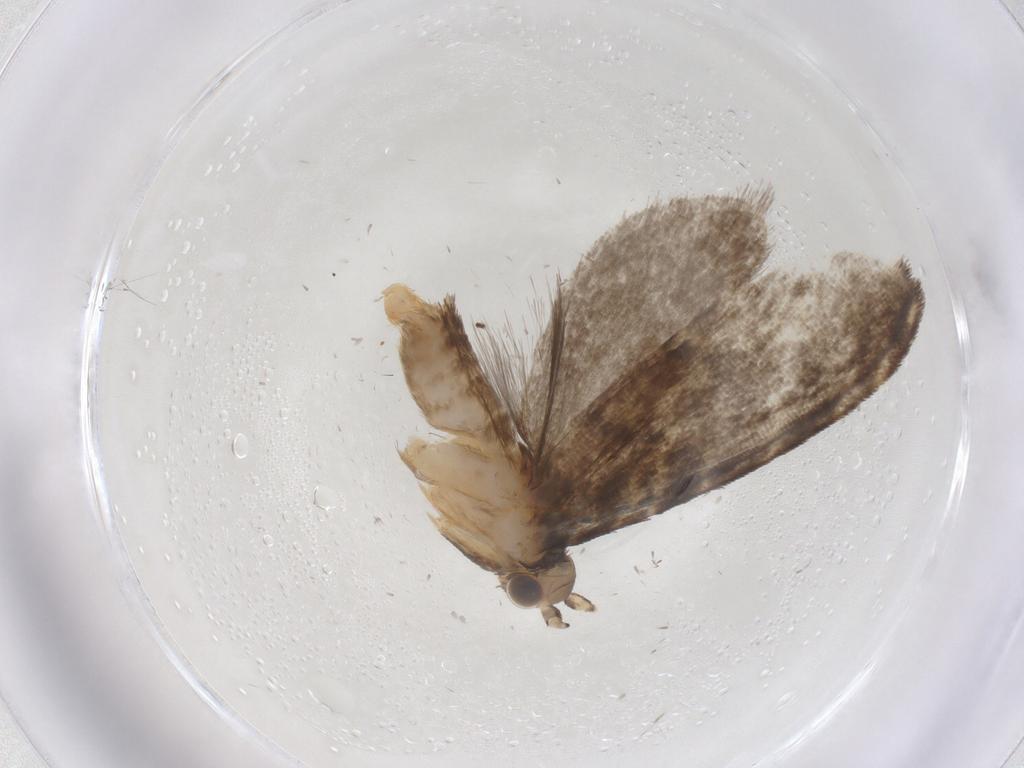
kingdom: Animalia
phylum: Arthropoda
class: Insecta
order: Lepidoptera
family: Tineidae
